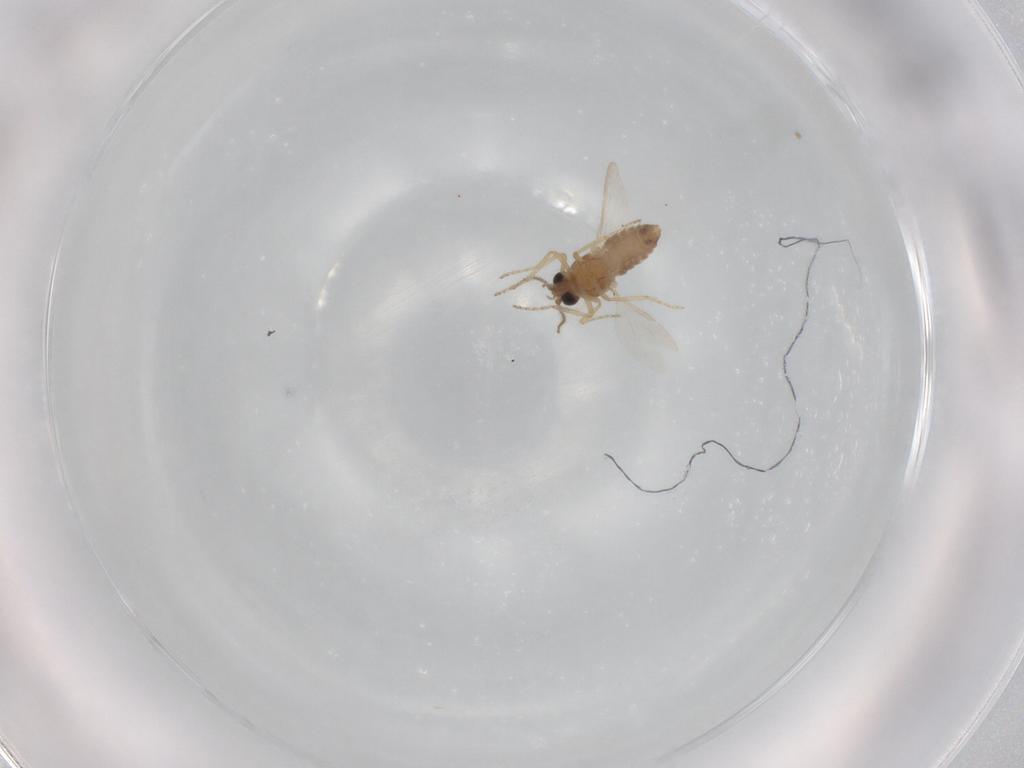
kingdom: Animalia
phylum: Arthropoda
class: Insecta
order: Diptera
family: Ceratopogonidae
